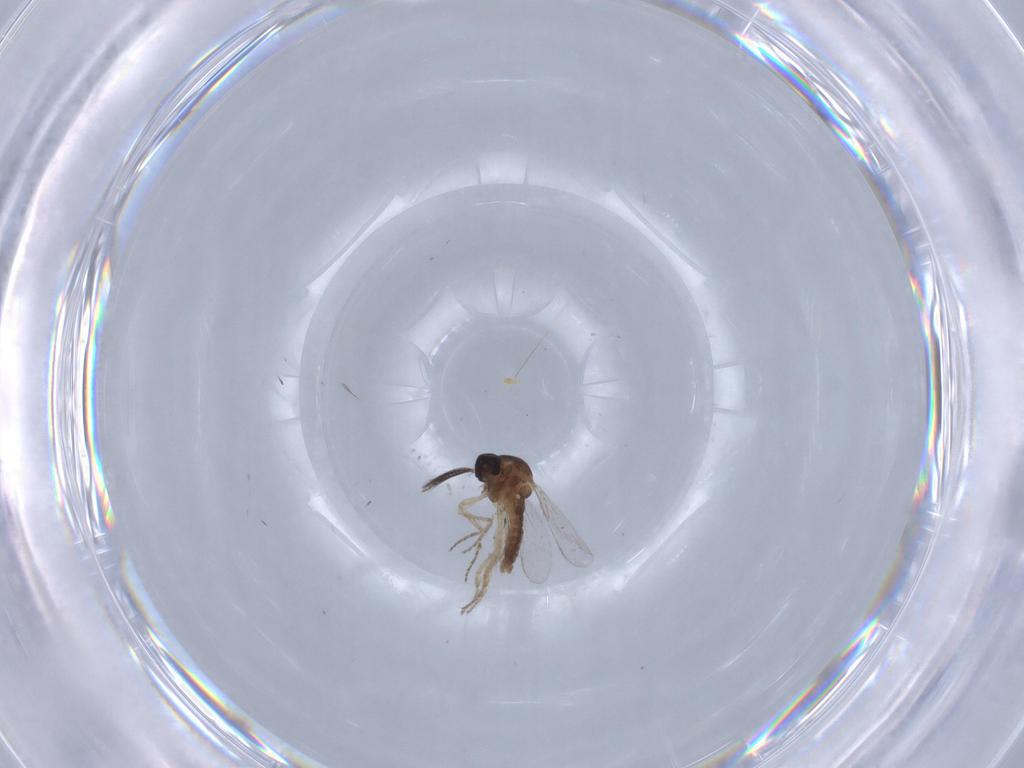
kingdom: Animalia
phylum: Arthropoda
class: Insecta
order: Diptera
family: Ceratopogonidae
